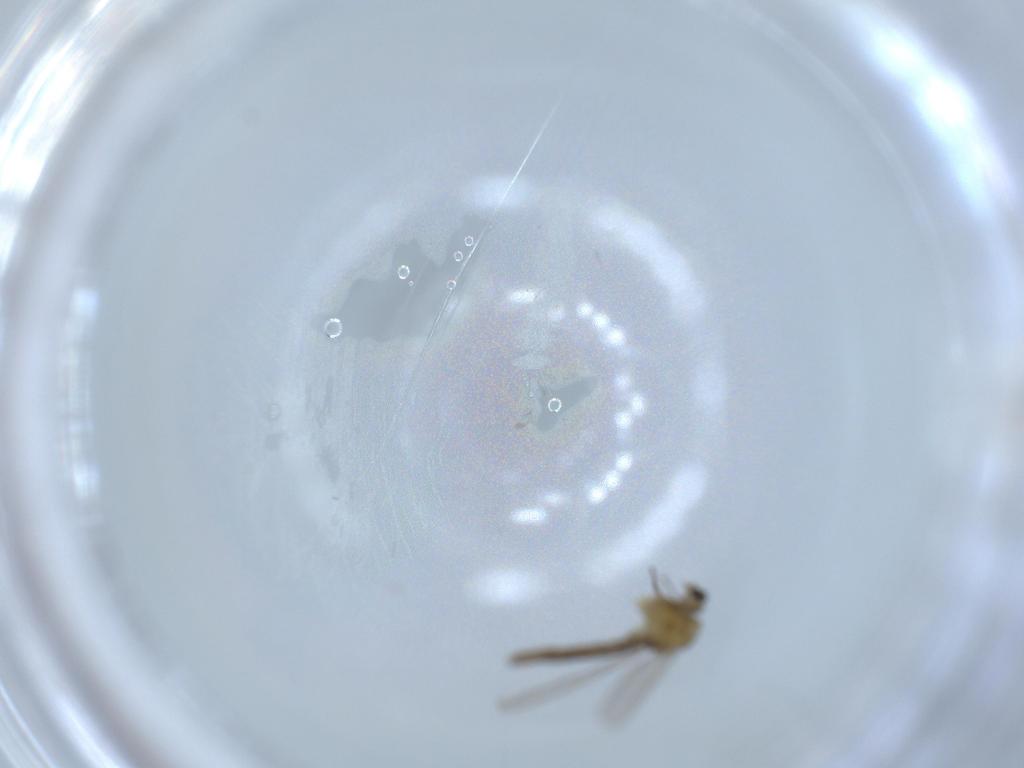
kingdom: Animalia
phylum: Arthropoda
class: Insecta
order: Diptera
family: Chironomidae
